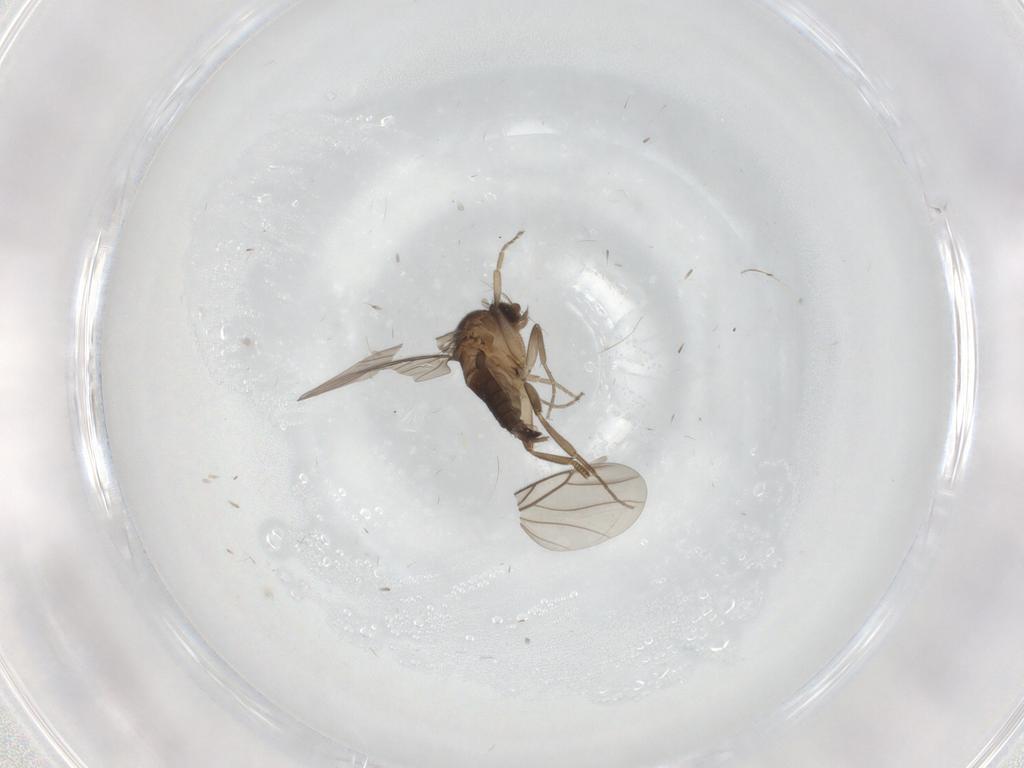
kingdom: Animalia
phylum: Arthropoda
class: Insecta
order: Diptera
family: Phoridae
